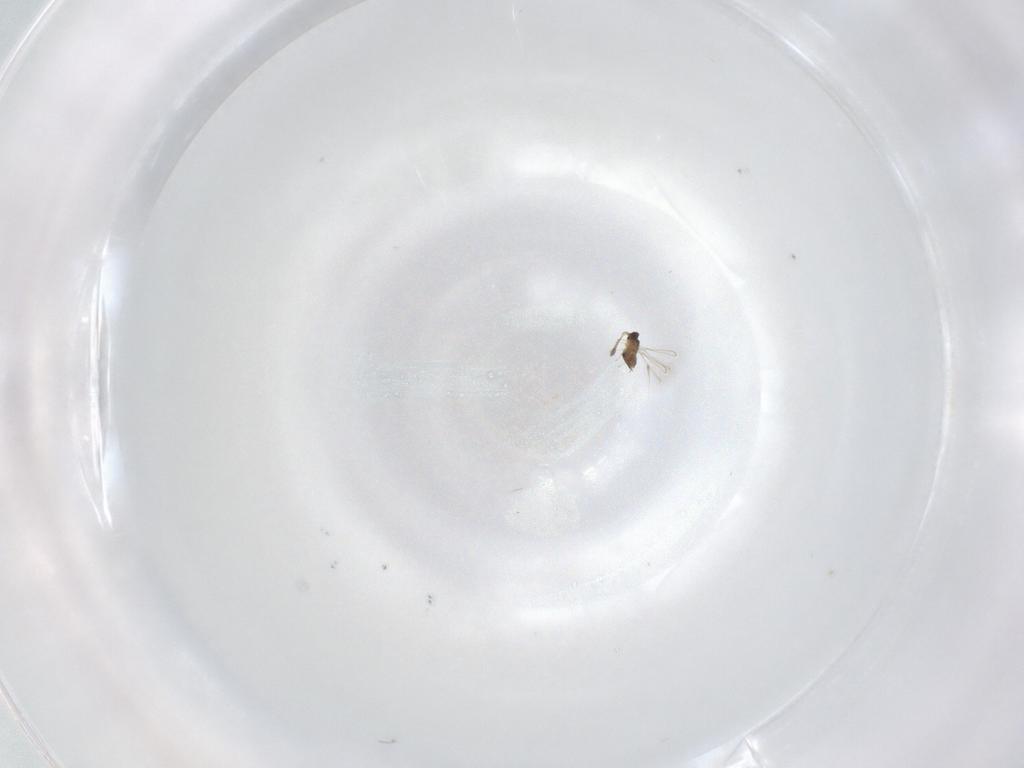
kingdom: Animalia
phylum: Arthropoda
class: Insecta
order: Hymenoptera
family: Mymaridae
